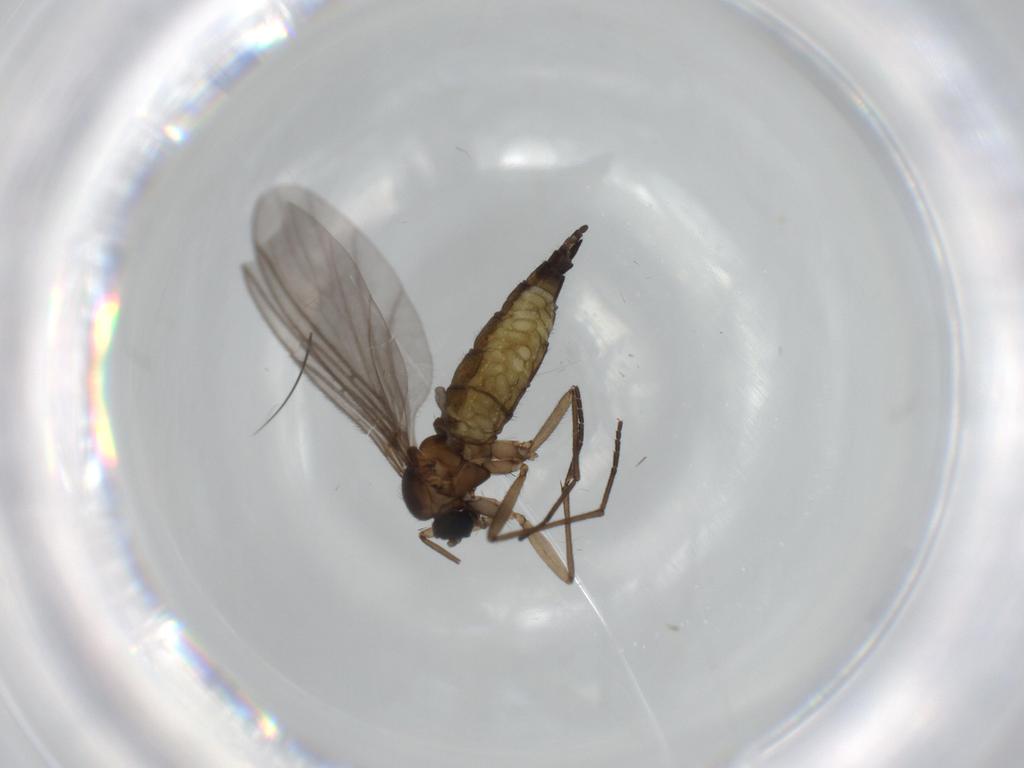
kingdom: Animalia
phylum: Arthropoda
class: Insecta
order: Diptera
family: Sciaridae
